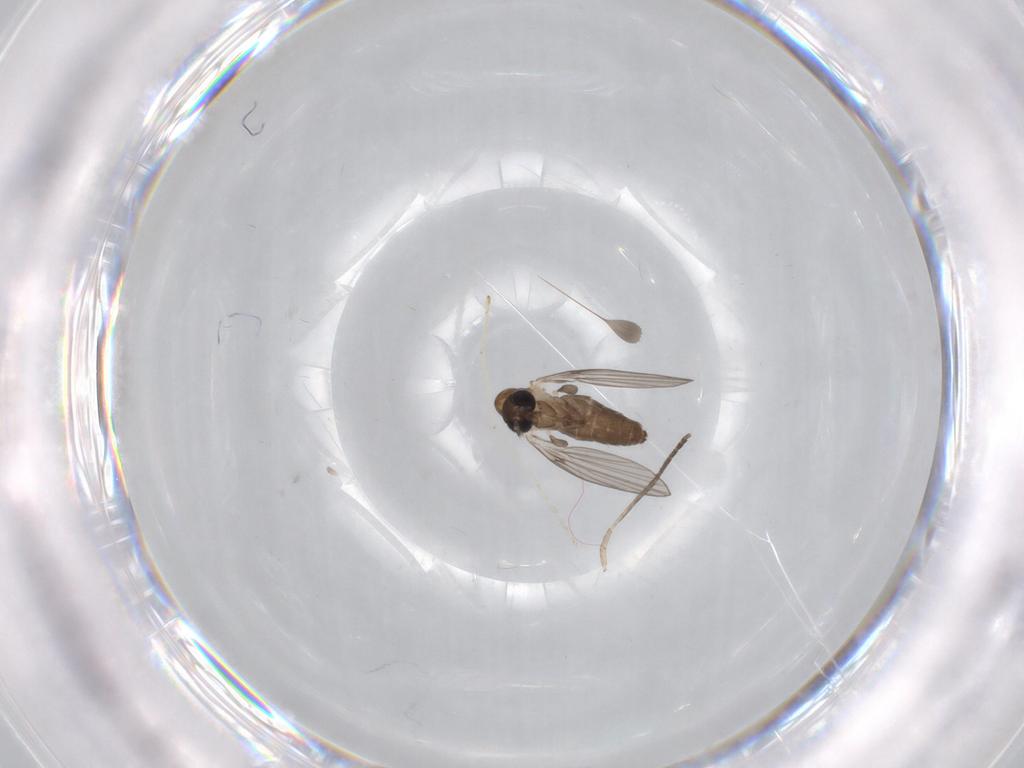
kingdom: Animalia
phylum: Arthropoda
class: Insecta
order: Diptera
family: Psychodidae
